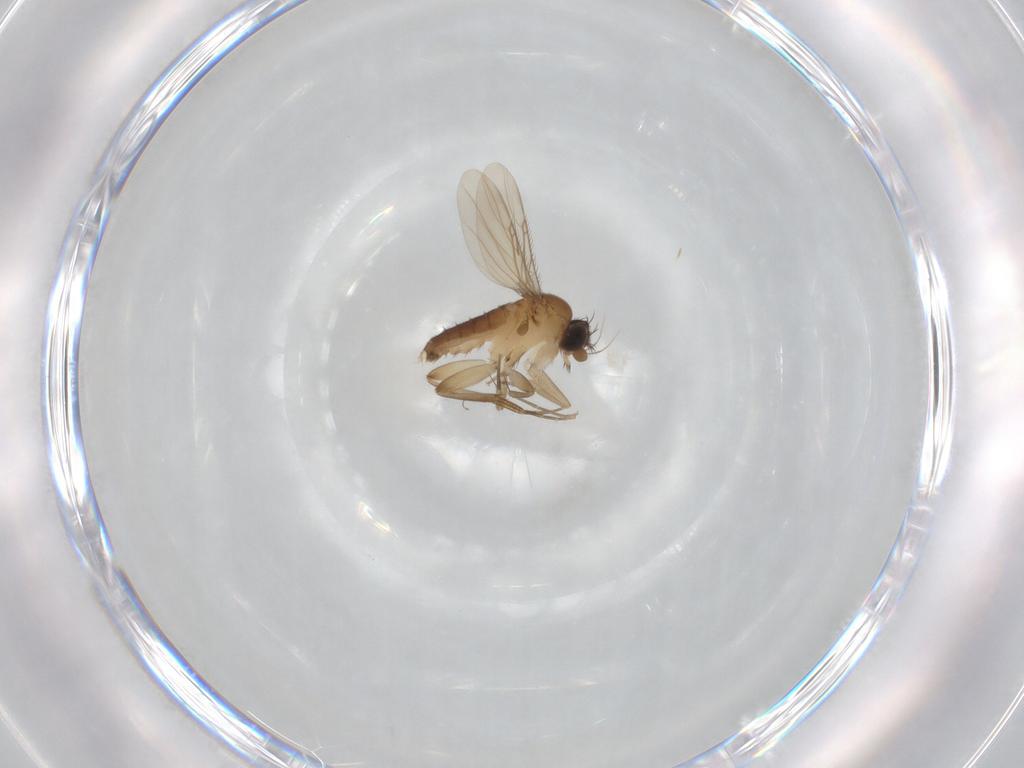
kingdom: Animalia
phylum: Arthropoda
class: Insecta
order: Diptera
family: Phoridae
